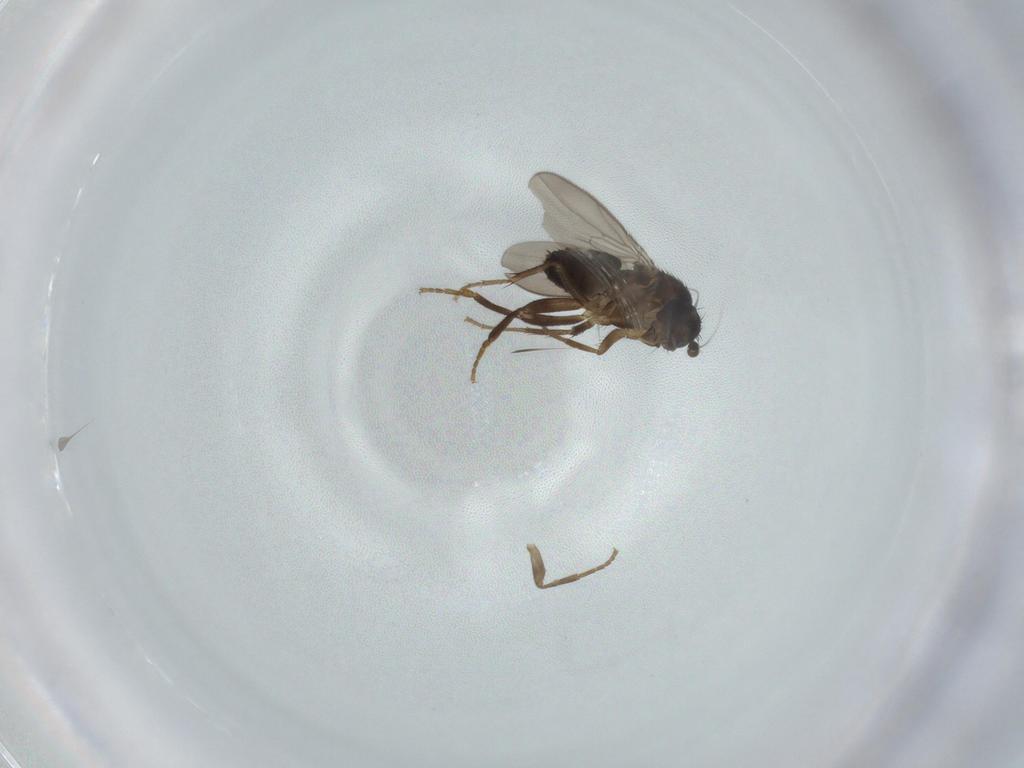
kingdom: Animalia
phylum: Arthropoda
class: Insecta
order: Diptera
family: Sphaeroceridae
